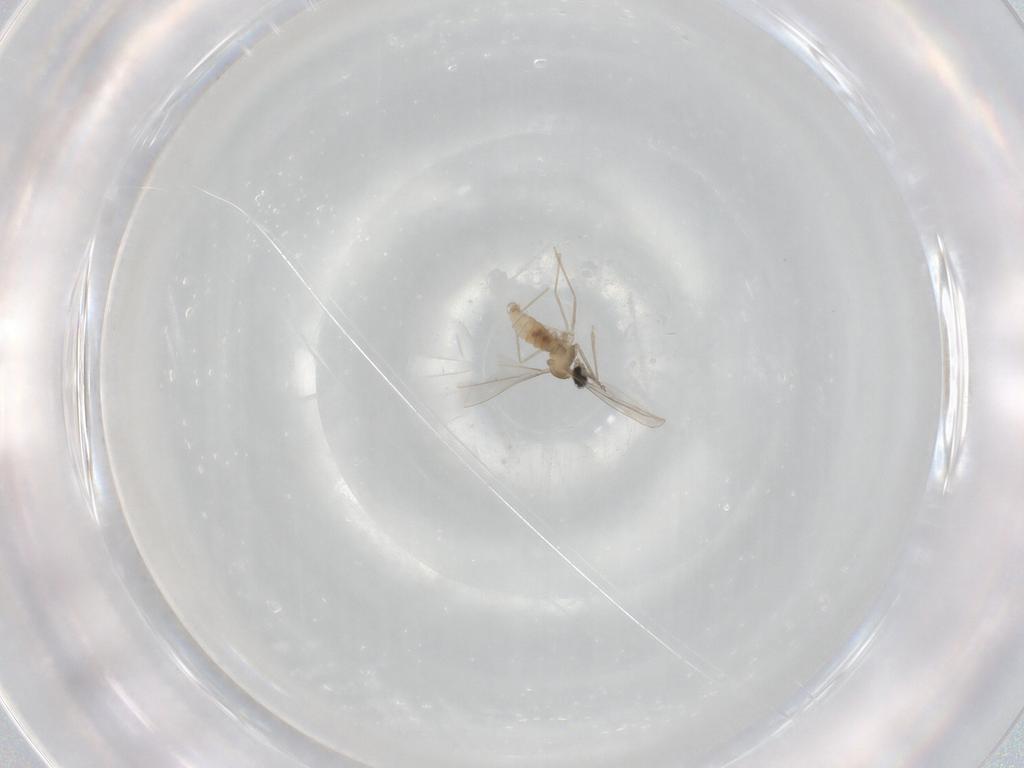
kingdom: Animalia
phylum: Arthropoda
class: Insecta
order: Diptera
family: Cecidomyiidae
